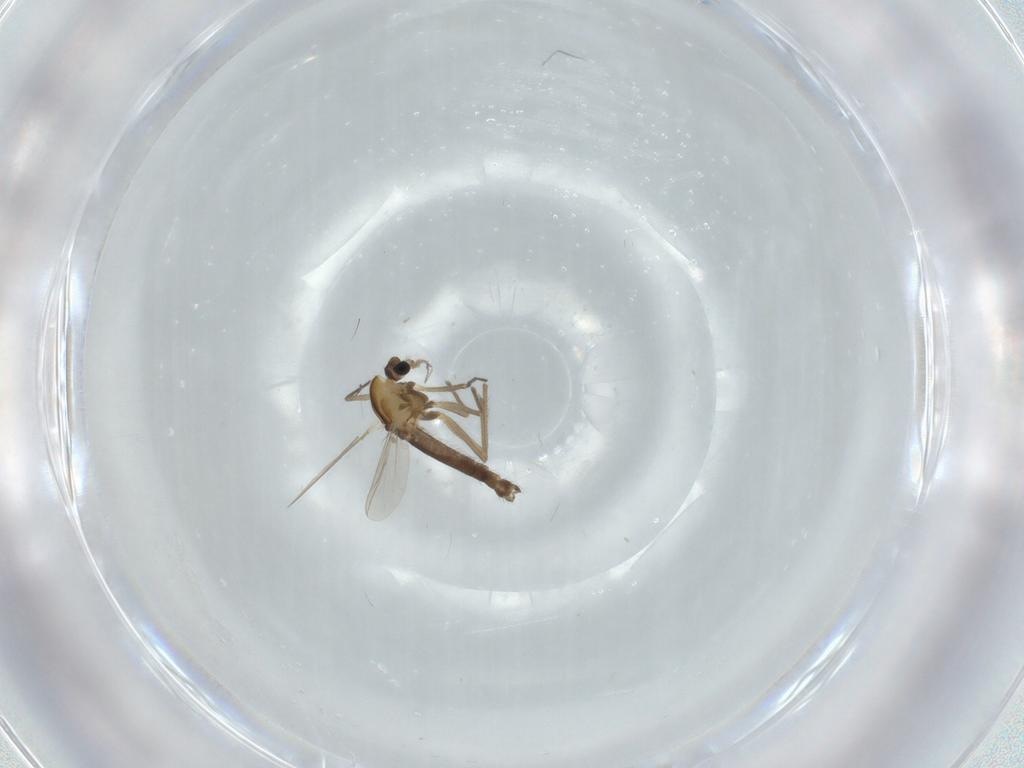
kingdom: Animalia
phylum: Arthropoda
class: Insecta
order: Diptera
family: Chironomidae
